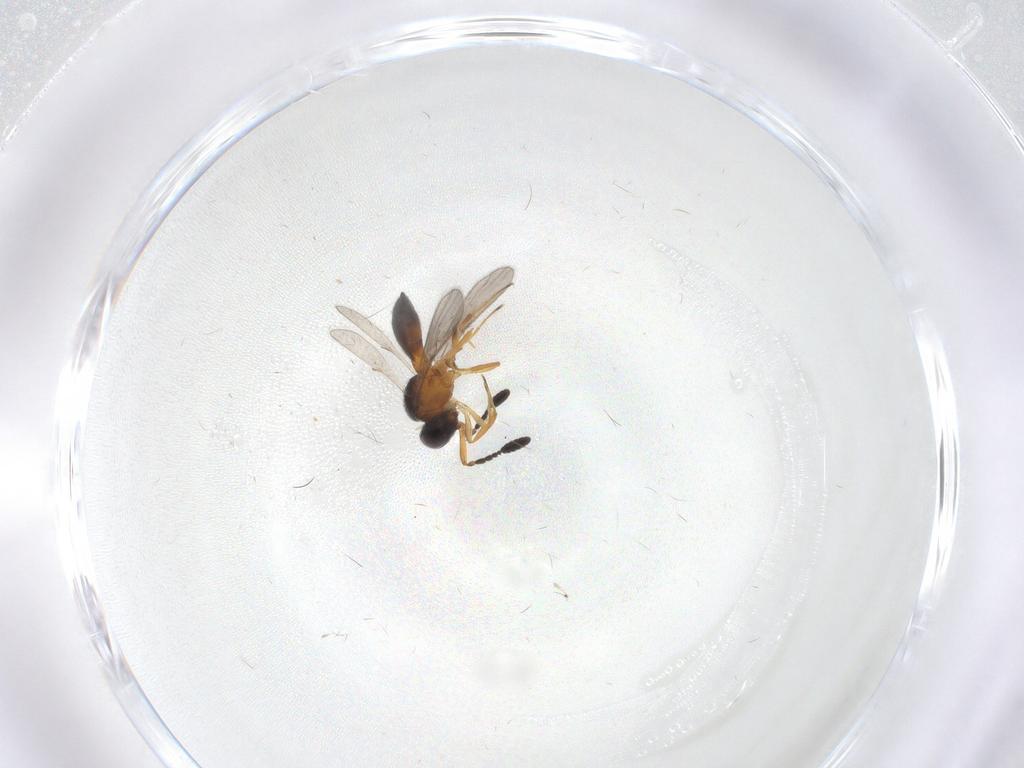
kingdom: Animalia
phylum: Arthropoda
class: Insecta
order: Hymenoptera
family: Scelionidae
